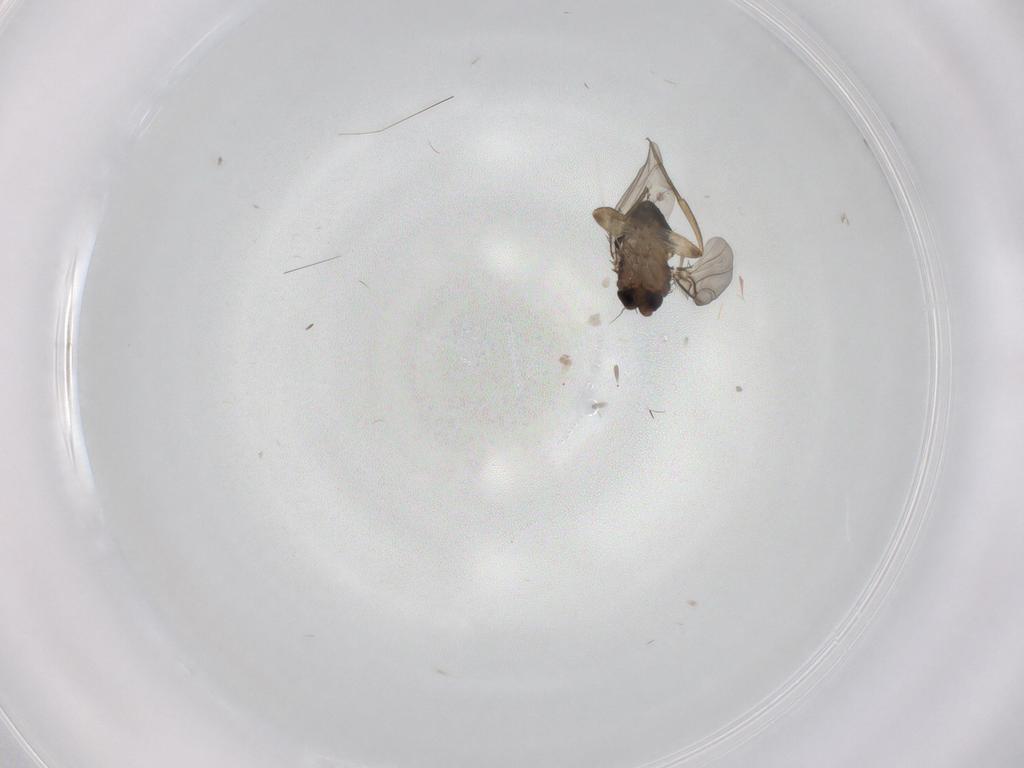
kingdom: Animalia
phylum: Arthropoda
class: Insecta
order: Diptera
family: Phoridae
